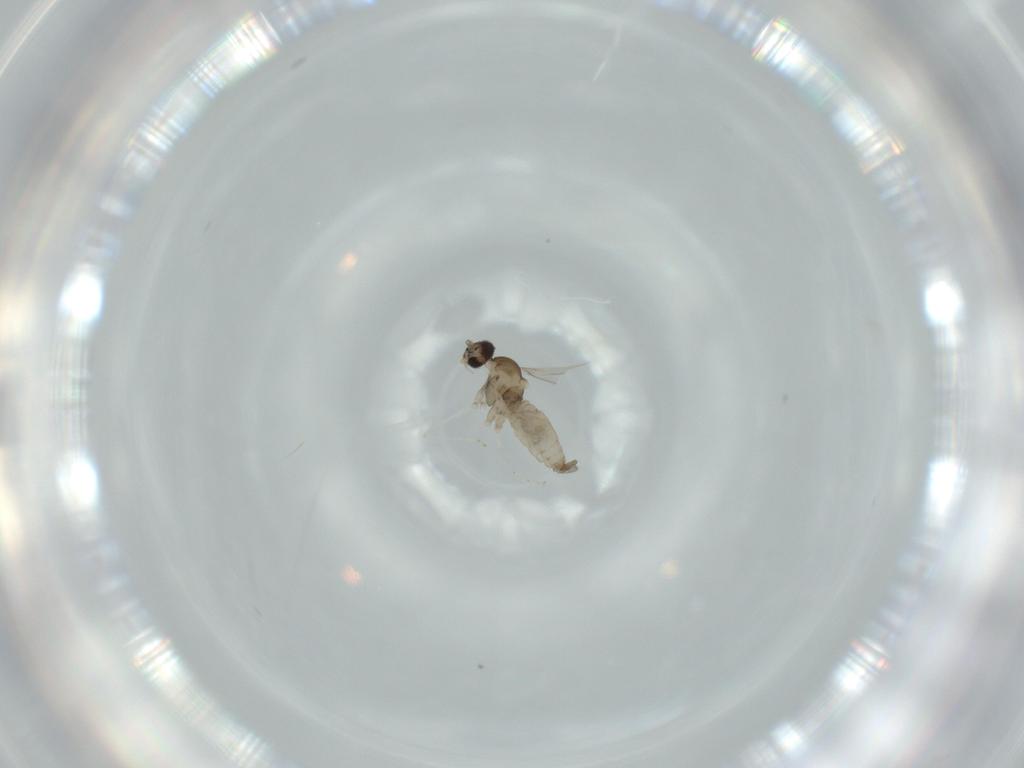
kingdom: Animalia
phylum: Arthropoda
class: Insecta
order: Diptera
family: Cecidomyiidae
